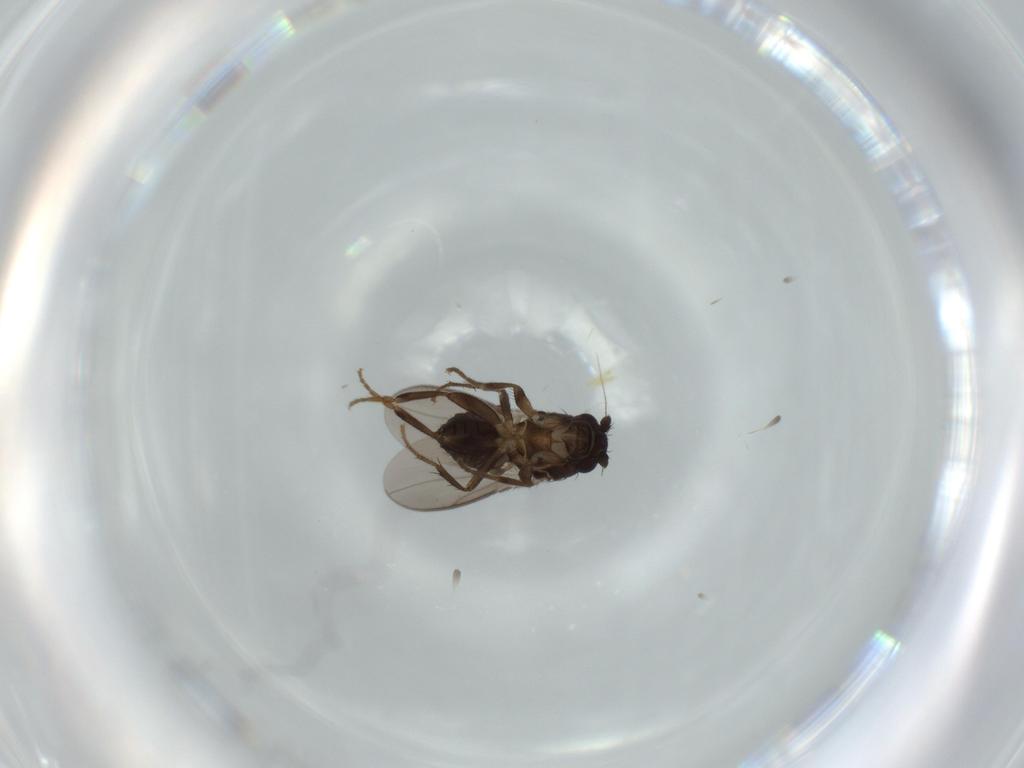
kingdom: Animalia
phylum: Arthropoda
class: Insecta
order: Diptera
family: Sphaeroceridae
